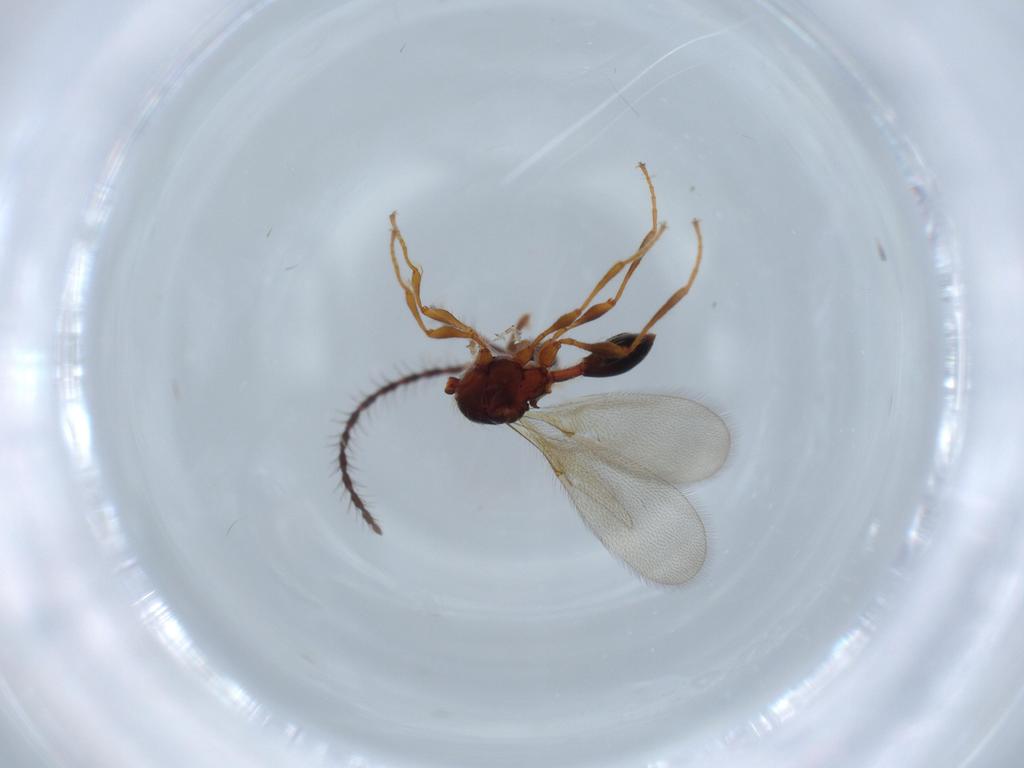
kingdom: Animalia
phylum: Arthropoda
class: Insecta
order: Hymenoptera
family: Diapriidae
